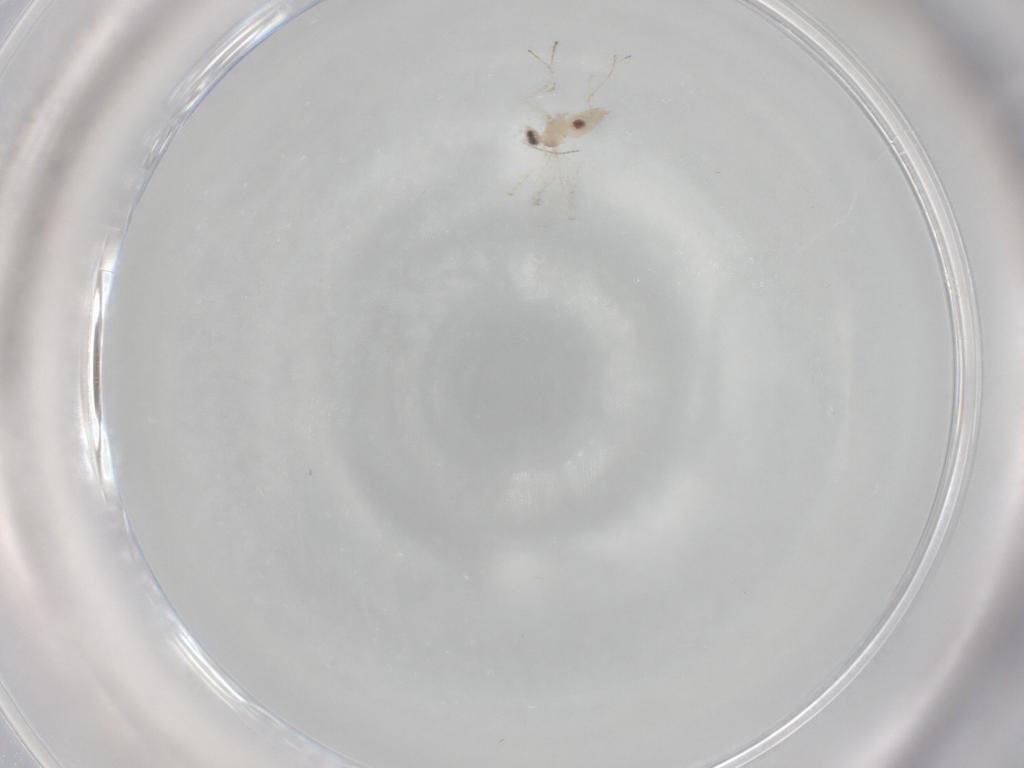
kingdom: Animalia
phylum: Arthropoda
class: Insecta
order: Diptera
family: Cecidomyiidae
